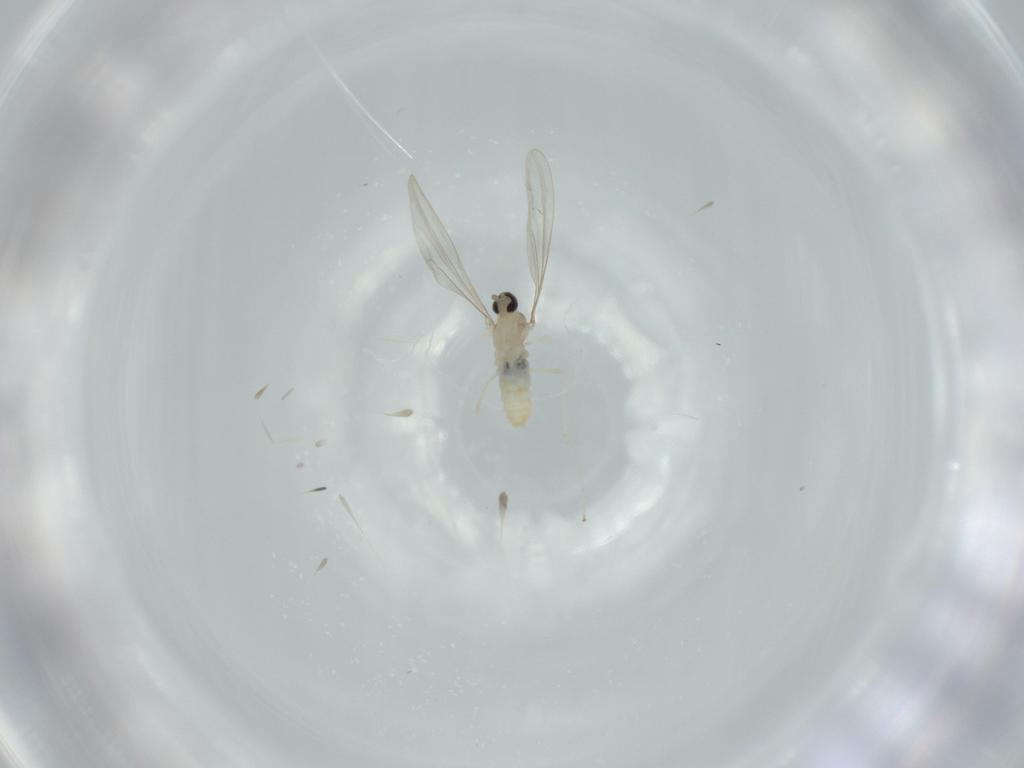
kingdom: Animalia
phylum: Arthropoda
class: Insecta
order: Diptera
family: Cecidomyiidae
